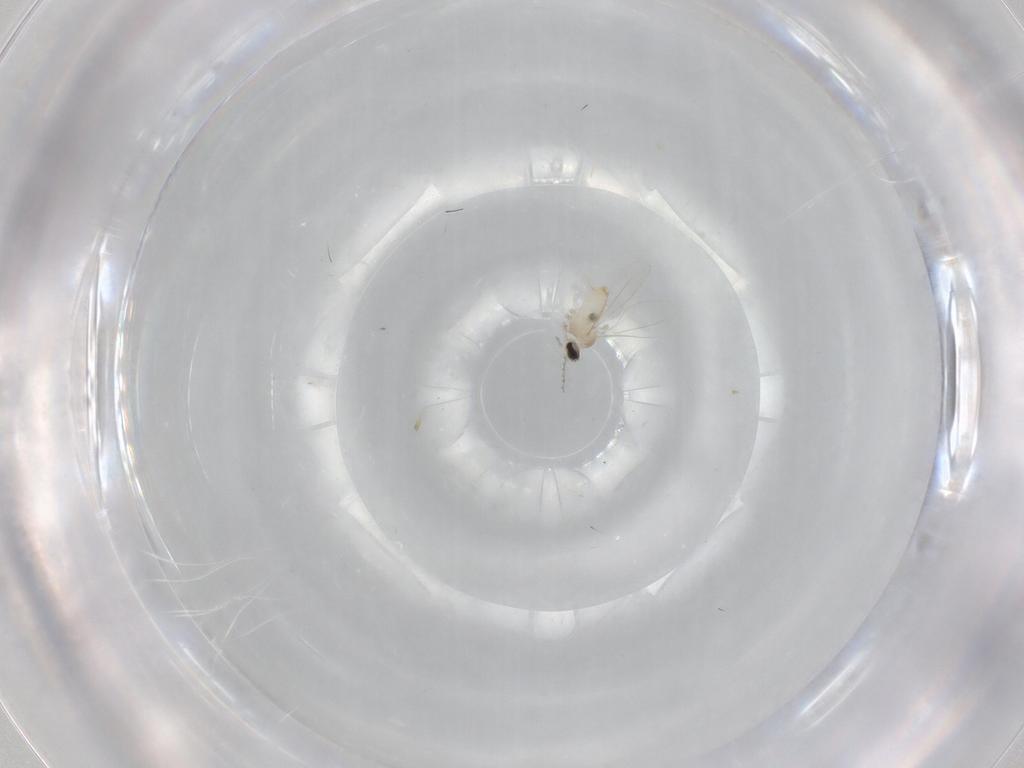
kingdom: Animalia
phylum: Arthropoda
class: Insecta
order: Diptera
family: Cecidomyiidae
